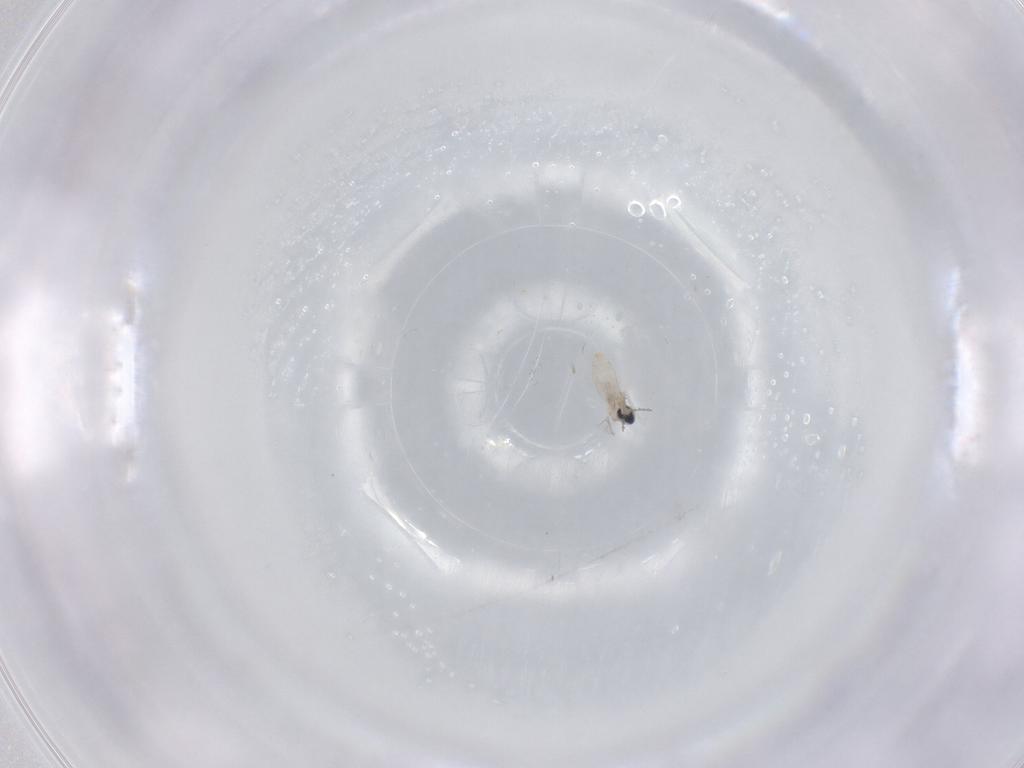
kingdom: Animalia
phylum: Arthropoda
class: Insecta
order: Diptera
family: Cecidomyiidae
